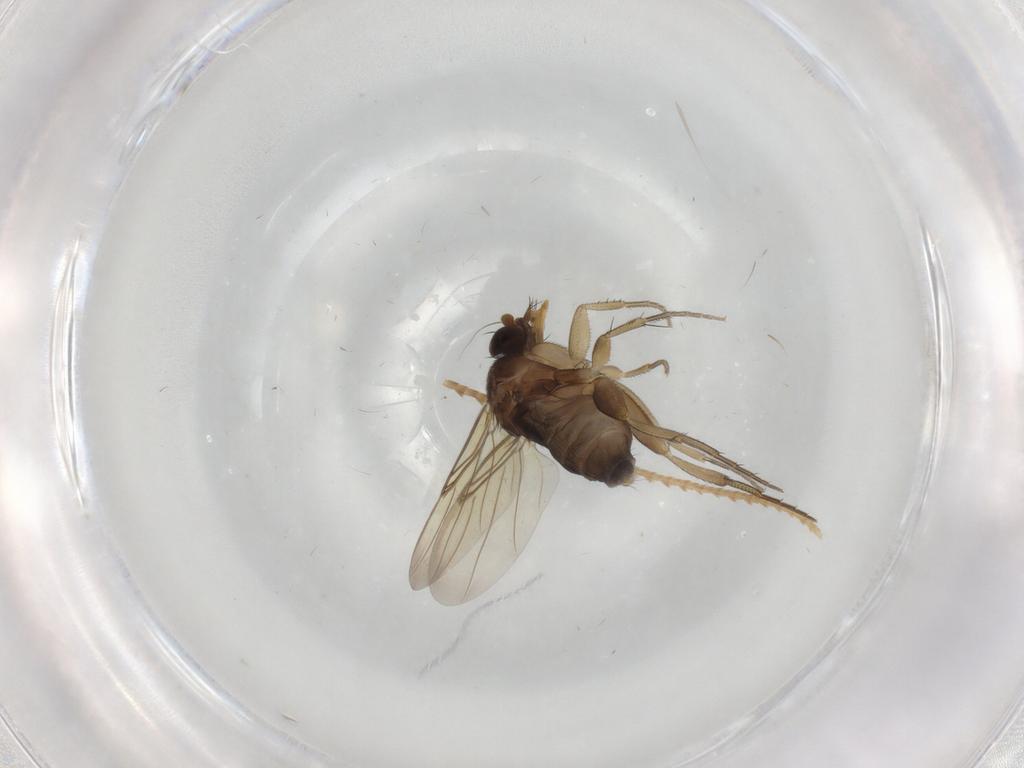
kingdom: Animalia
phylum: Arthropoda
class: Insecta
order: Diptera
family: Phoridae
